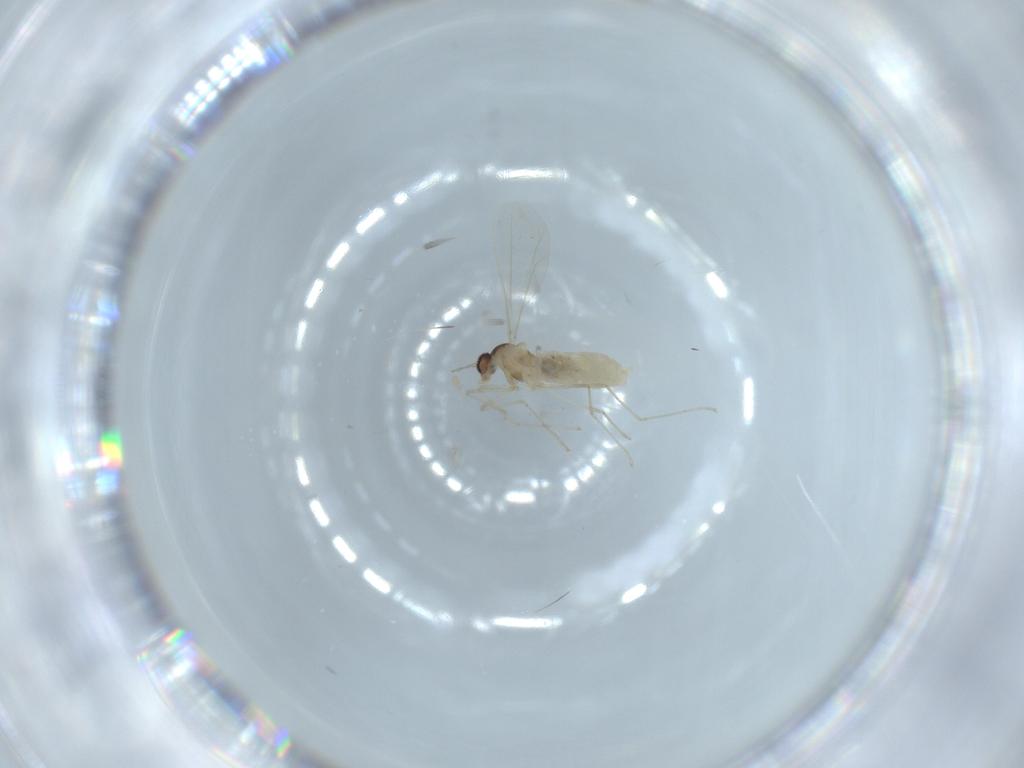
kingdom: Animalia
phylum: Arthropoda
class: Insecta
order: Diptera
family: Cecidomyiidae
